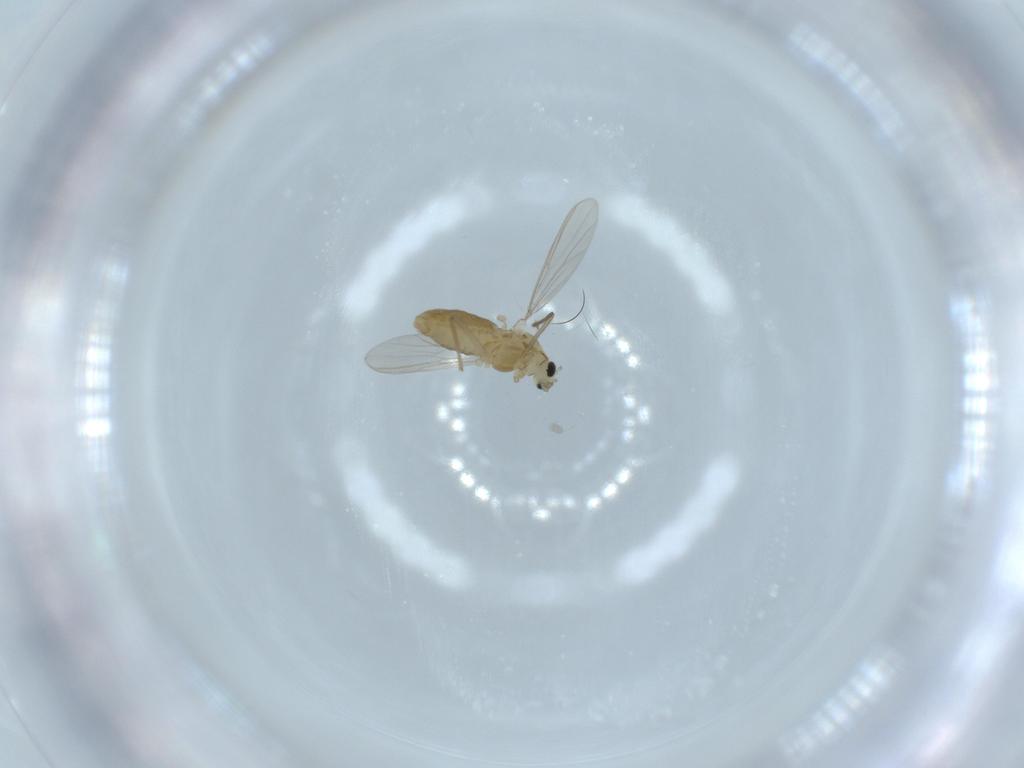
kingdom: Animalia
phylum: Arthropoda
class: Insecta
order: Diptera
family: Chironomidae
